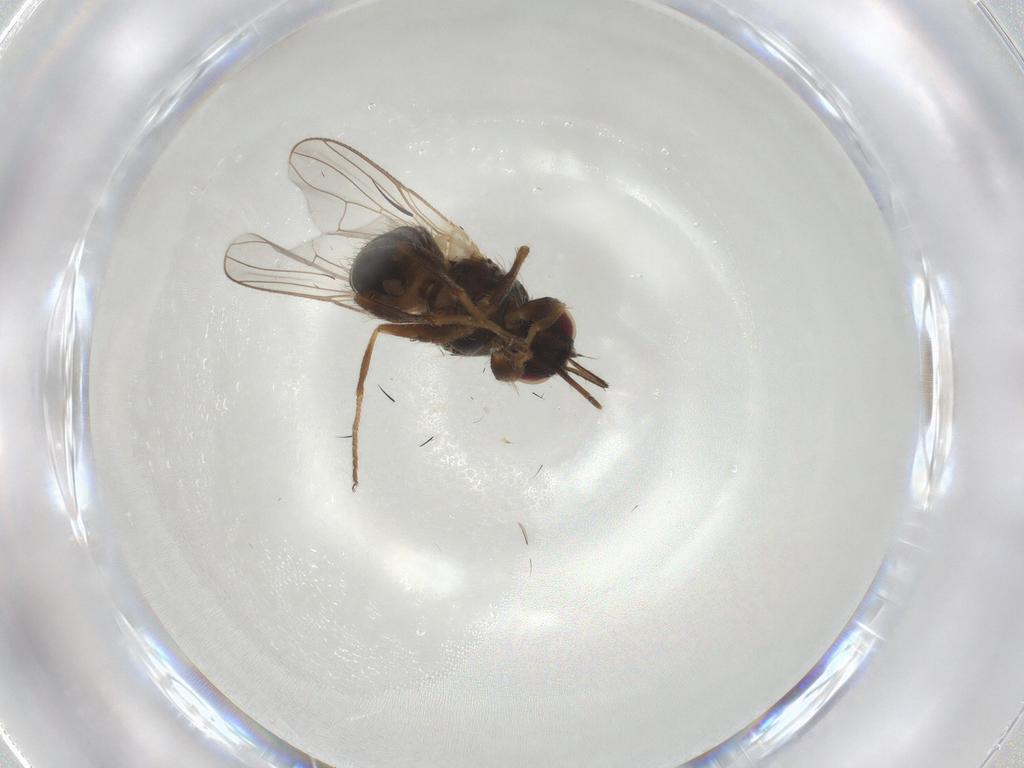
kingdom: Animalia
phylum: Arthropoda
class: Insecta
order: Diptera
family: Muscidae
